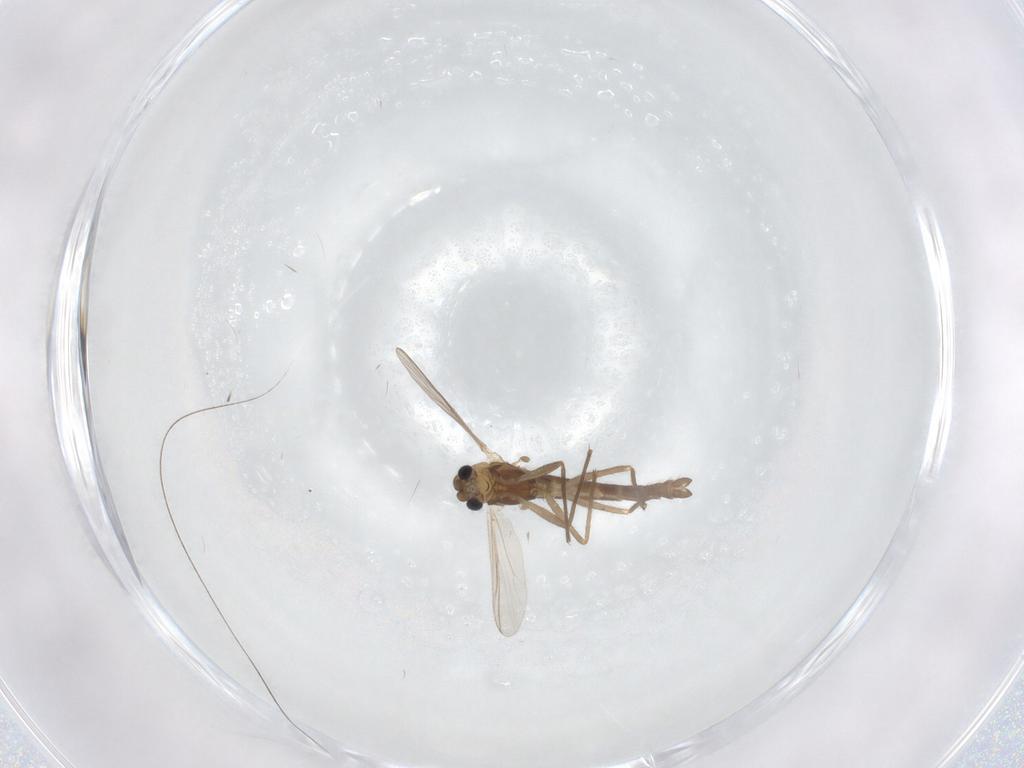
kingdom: Animalia
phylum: Arthropoda
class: Insecta
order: Diptera
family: Chironomidae
